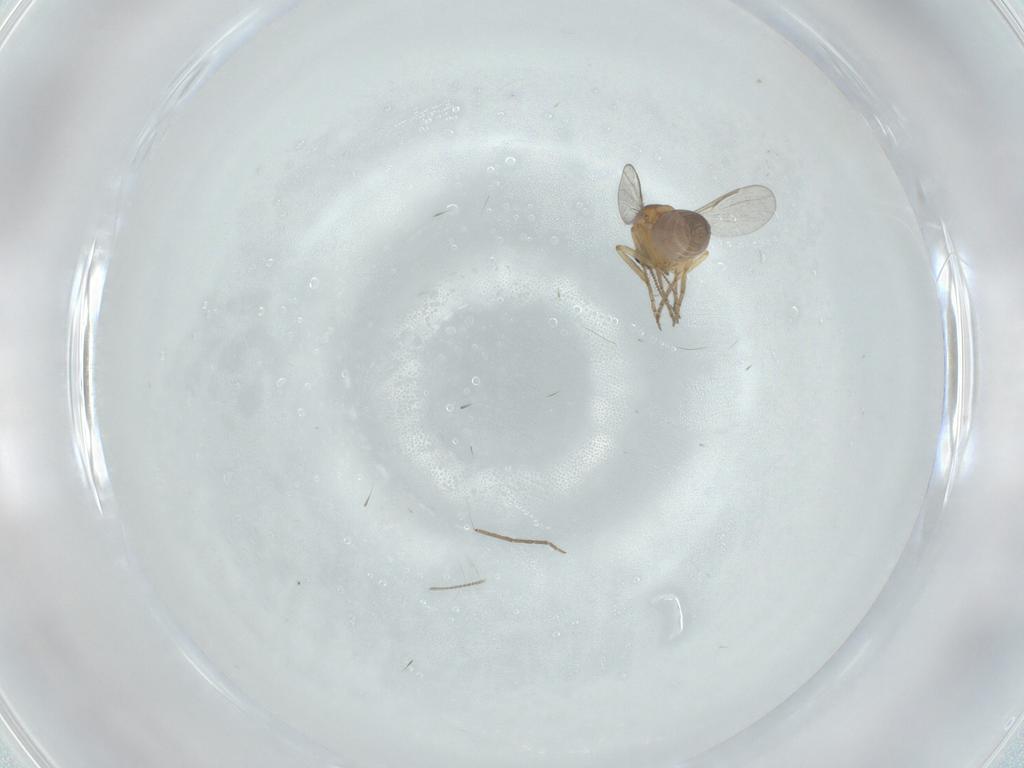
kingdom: Animalia
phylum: Arthropoda
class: Insecta
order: Diptera
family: Ceratopogonidae
